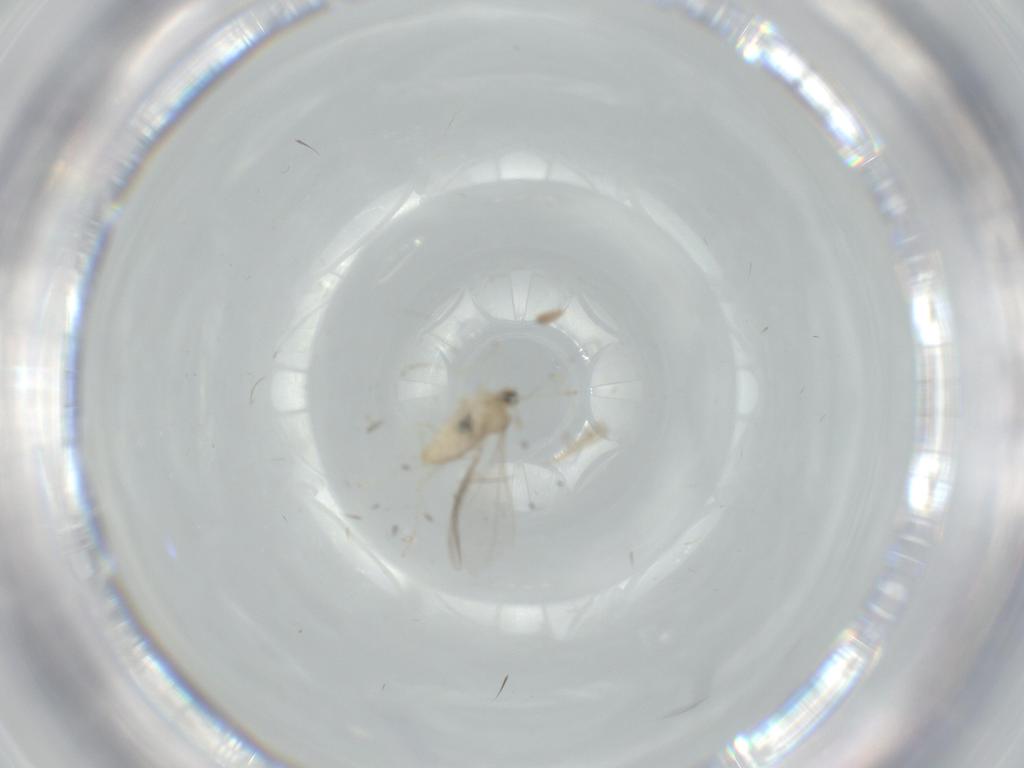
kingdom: Animalia
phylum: Arthropoda
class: Insecta
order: Diptera
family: Cecidomyiidae
